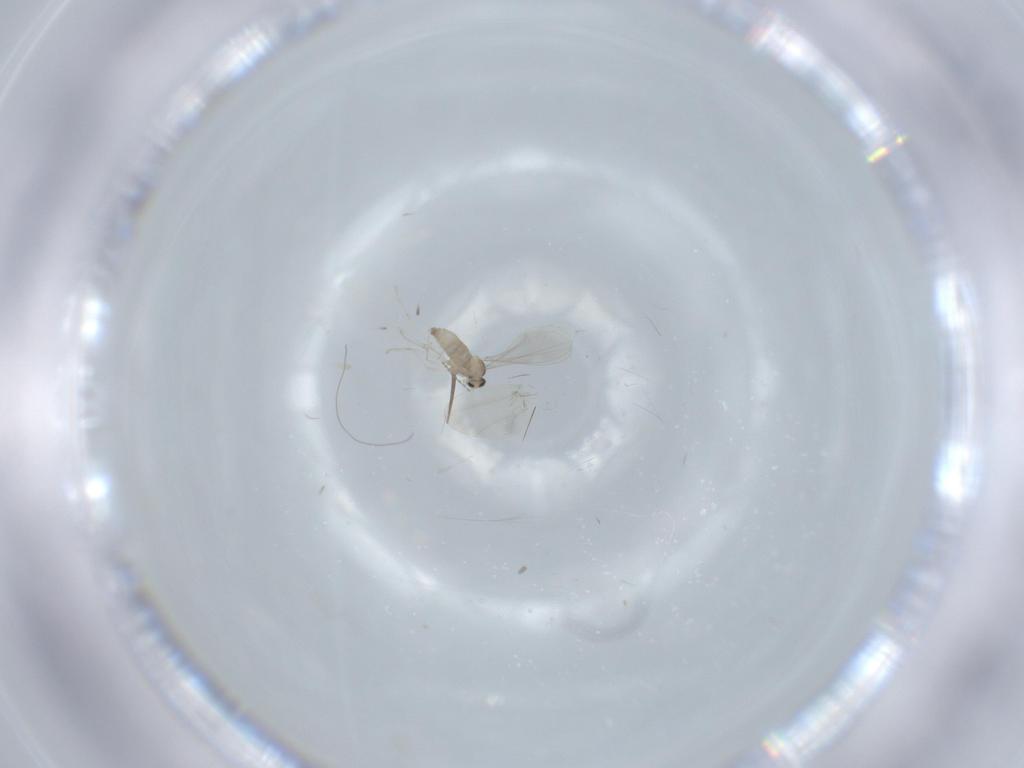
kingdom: Animalia
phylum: Arthropoda
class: Insecta
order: Diptera
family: Cecidomyiidae
